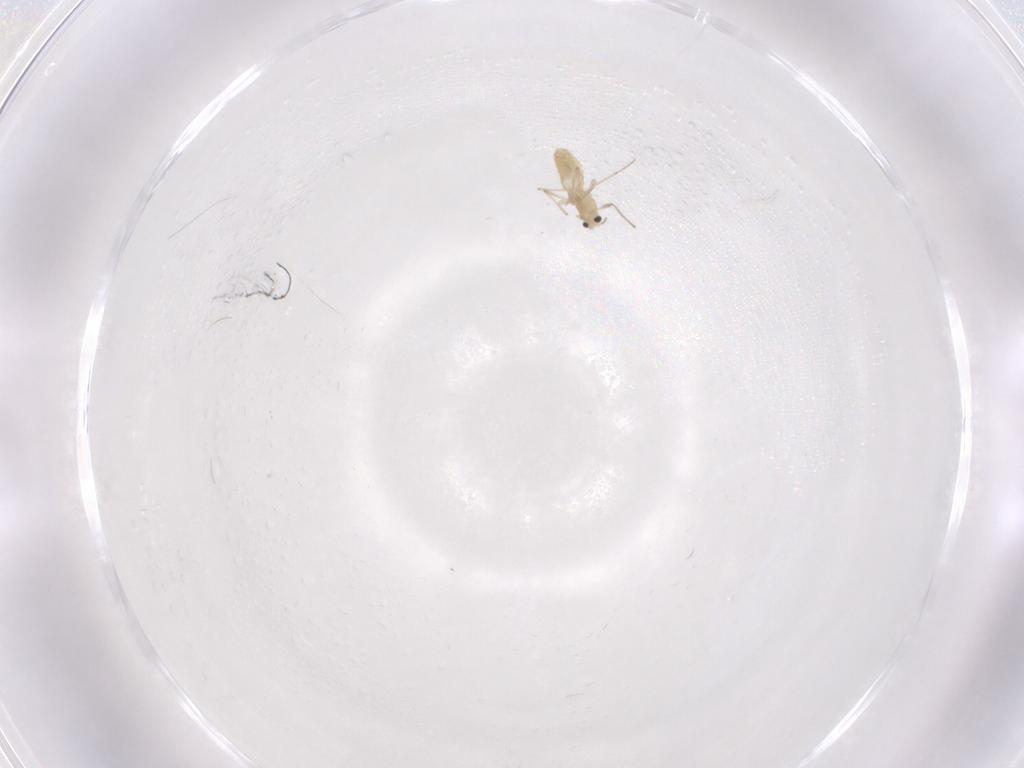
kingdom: Animalia
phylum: Arthropoda
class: Insecta
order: Diptera
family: Chironomidae
